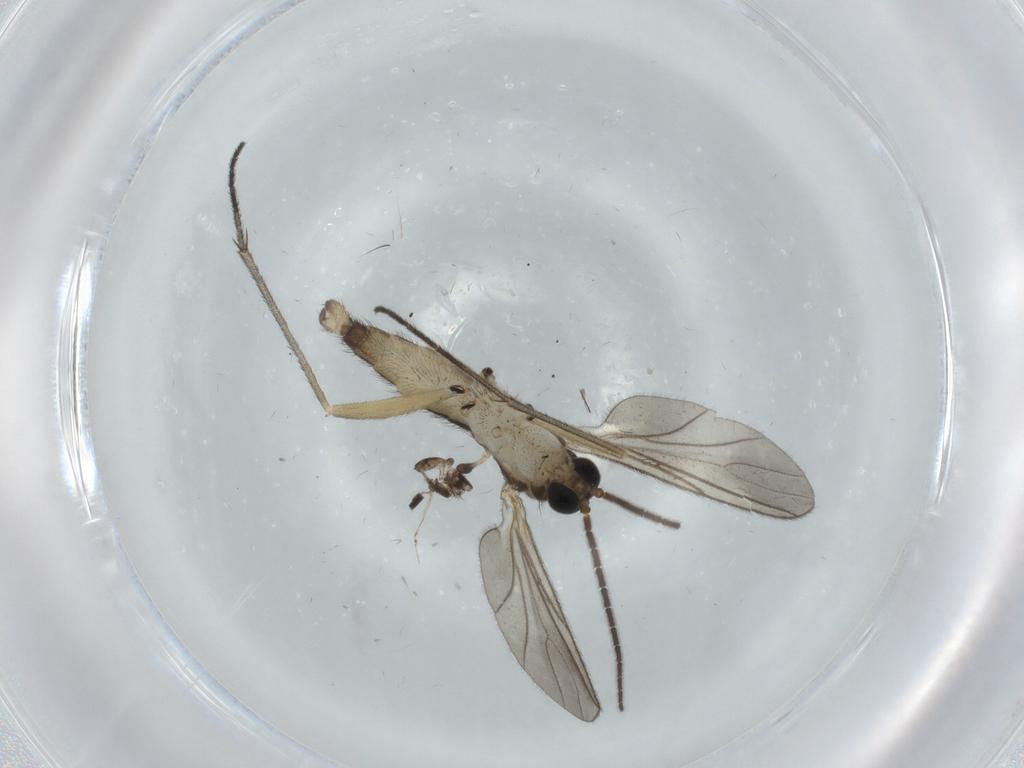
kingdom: Animalia
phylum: Arthropoda
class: Insecta
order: Diptera
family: Sciaridae
